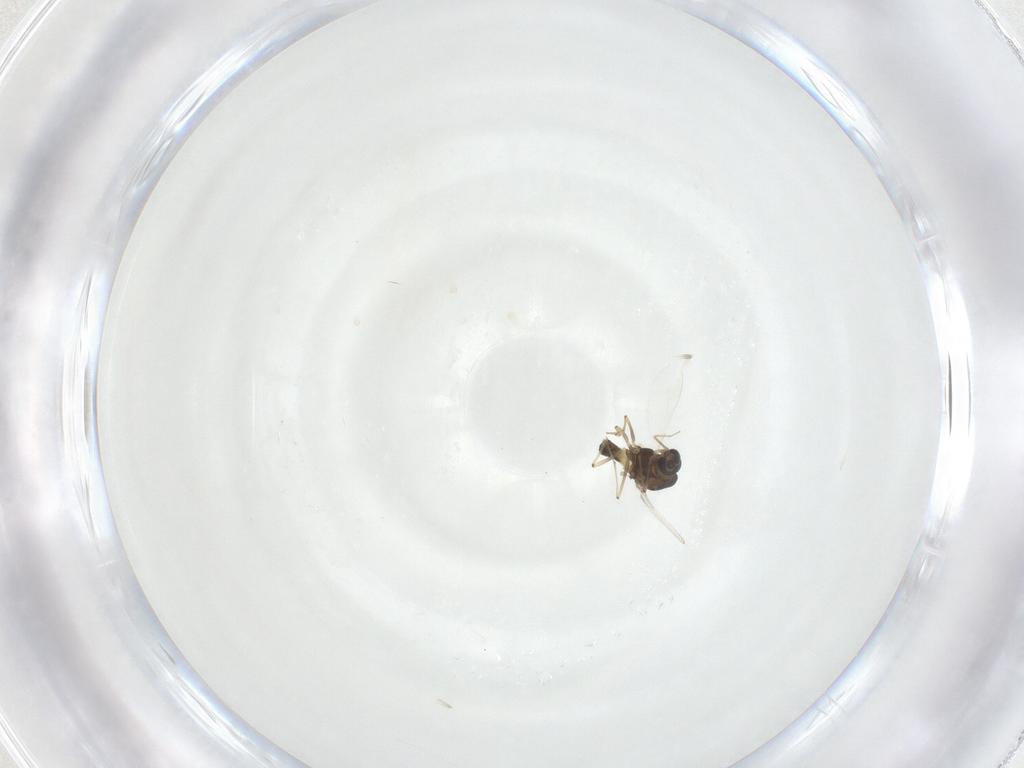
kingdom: Animalia
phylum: Arthropoda
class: Insecta
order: Diptera
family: Chironomidae
